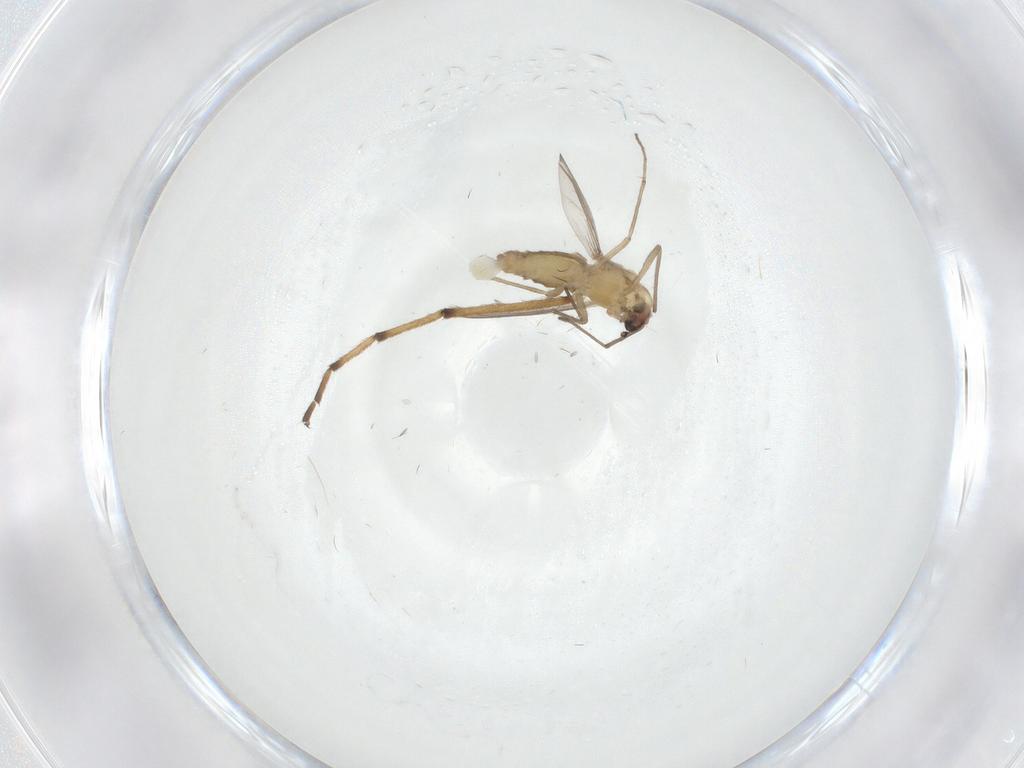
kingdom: Animalia
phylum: Arthropoda
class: Insecta
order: Diptera
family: Chironomidae
